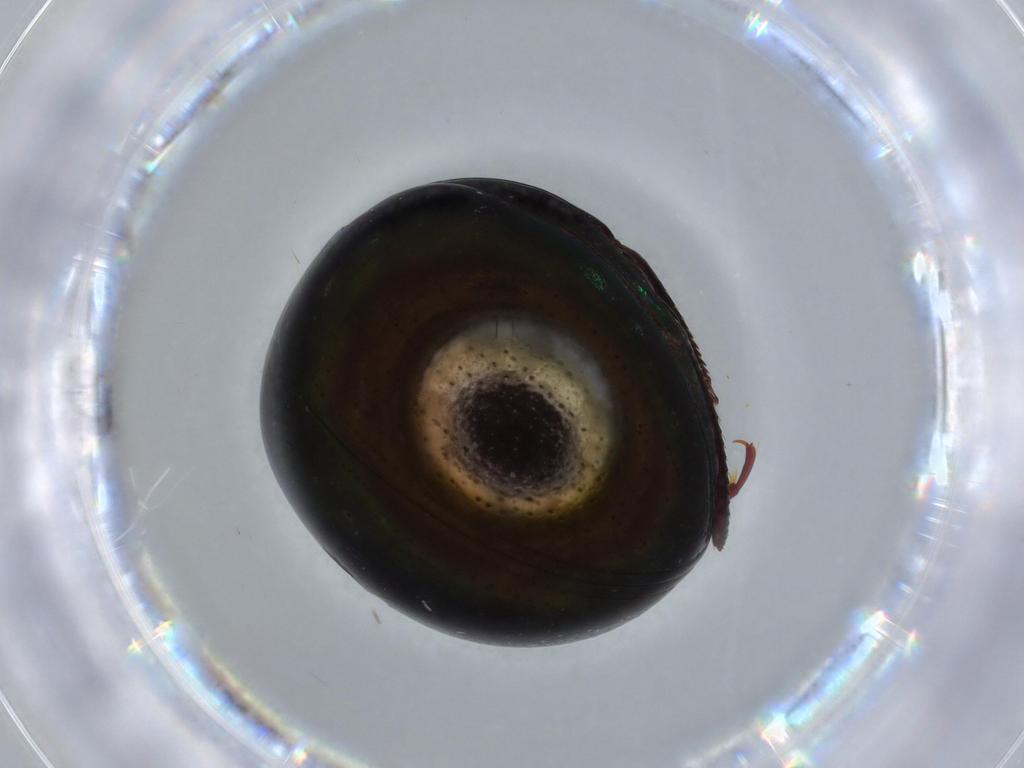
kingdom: Animalia
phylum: Arthropoda
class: Insecta
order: Coleoptera
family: Hybosoridae
